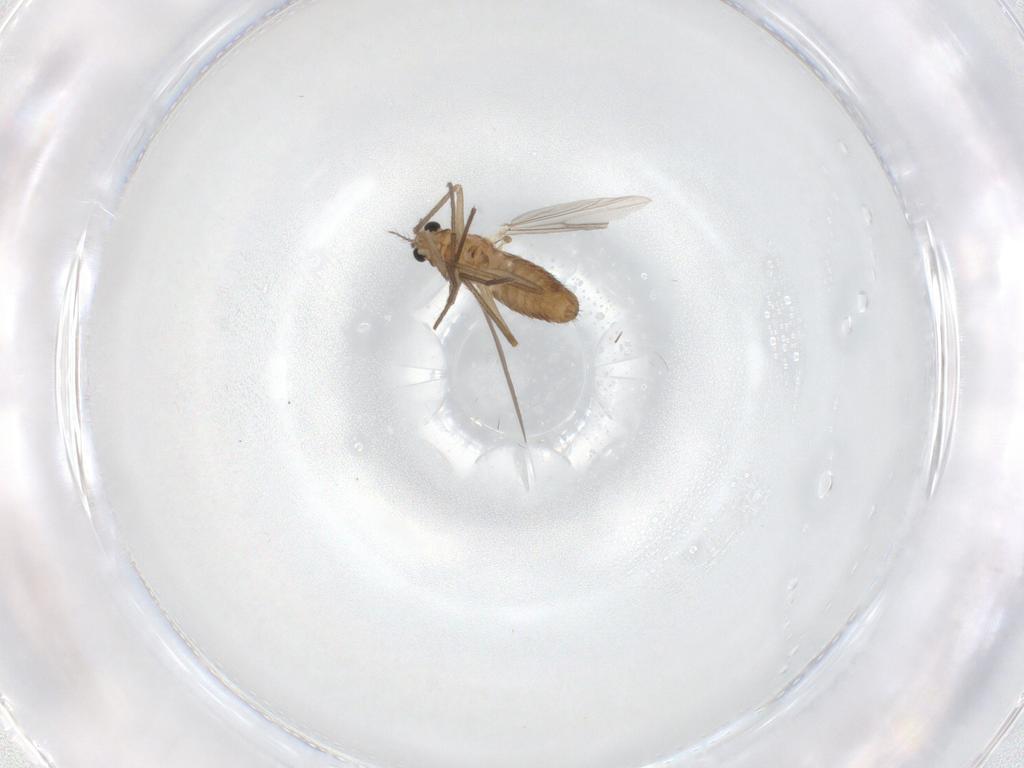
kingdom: Animalia
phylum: Arthropoda
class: Insecta
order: Diptera
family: Chironomidae
